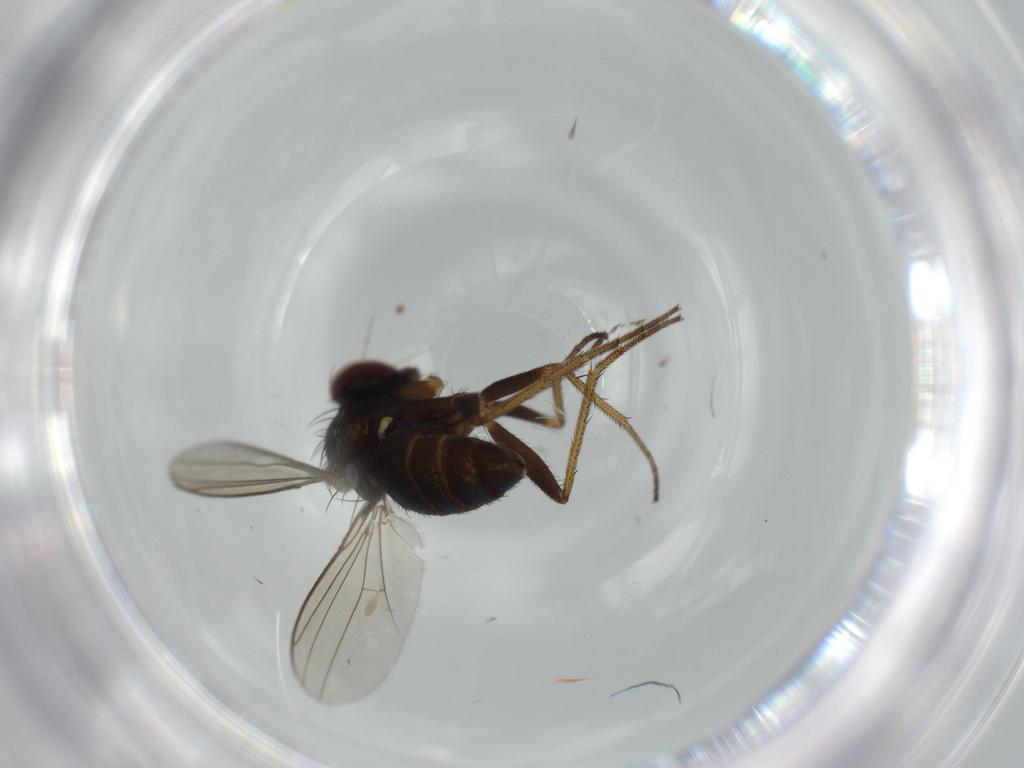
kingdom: Animalia
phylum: Arthropoda
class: Insecta
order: Diptera
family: Sciaridae
